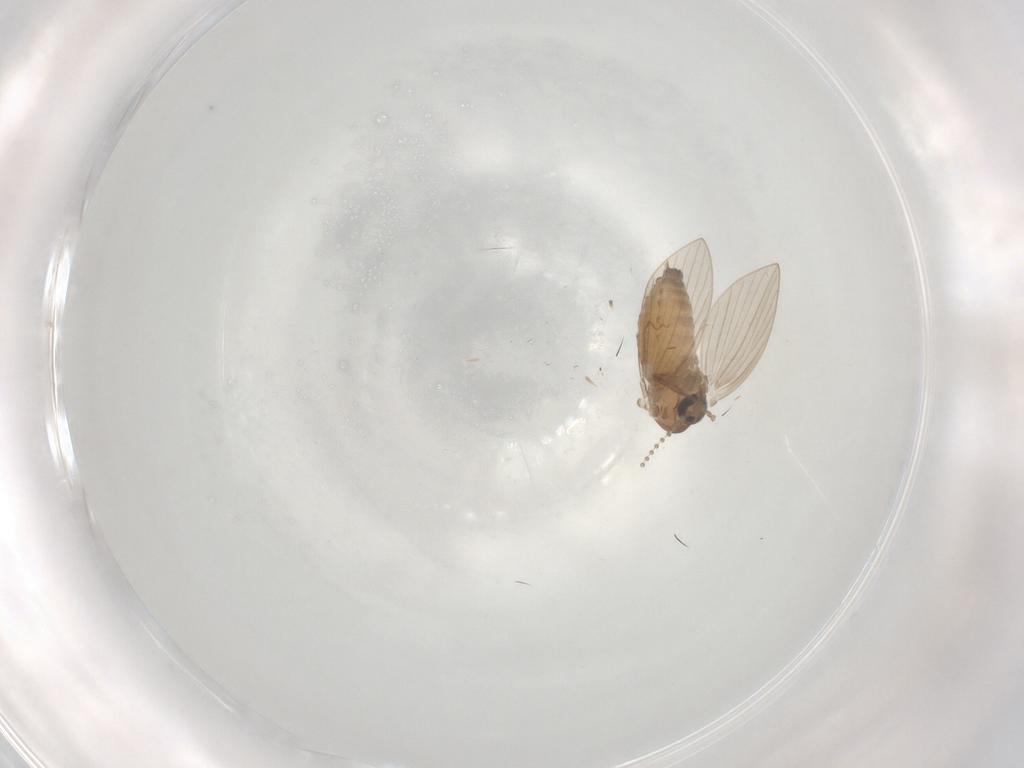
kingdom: Animalia
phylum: Arthropoda
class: Insecta
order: Diptera
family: Psychodidae
